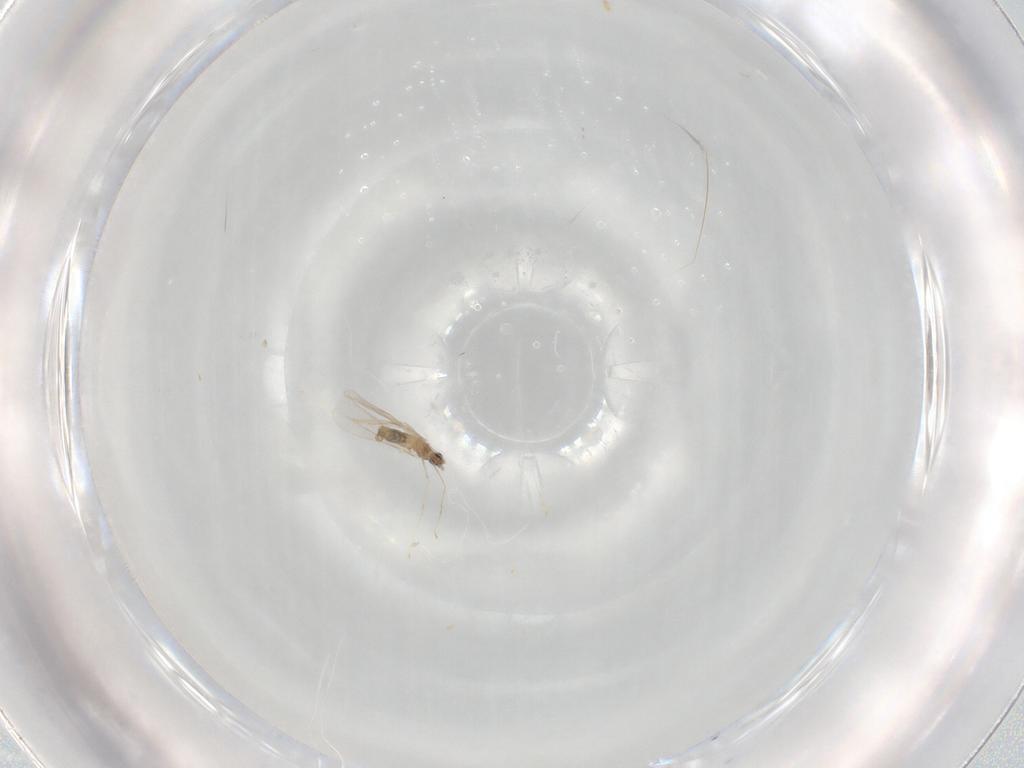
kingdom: Animalia
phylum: Arthropoda
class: Insecta
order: Diptera
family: Cecidomyiidae
